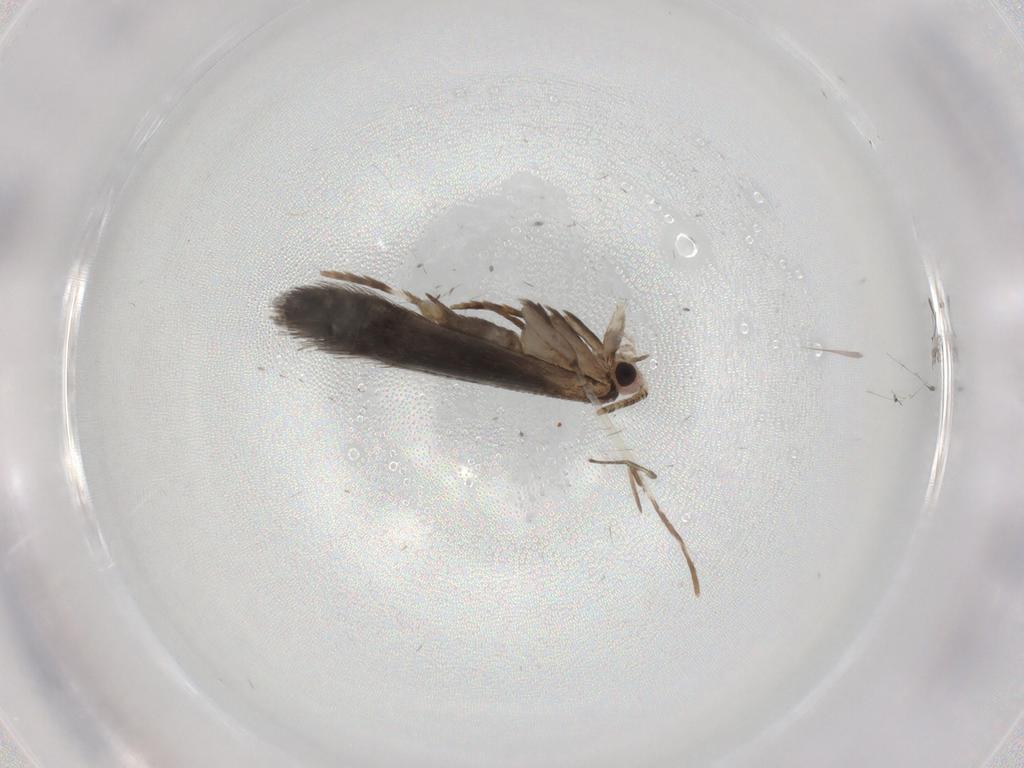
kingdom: Animalia
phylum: Arthropoda
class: Insecta
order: Lepidoptera
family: Tineidae
